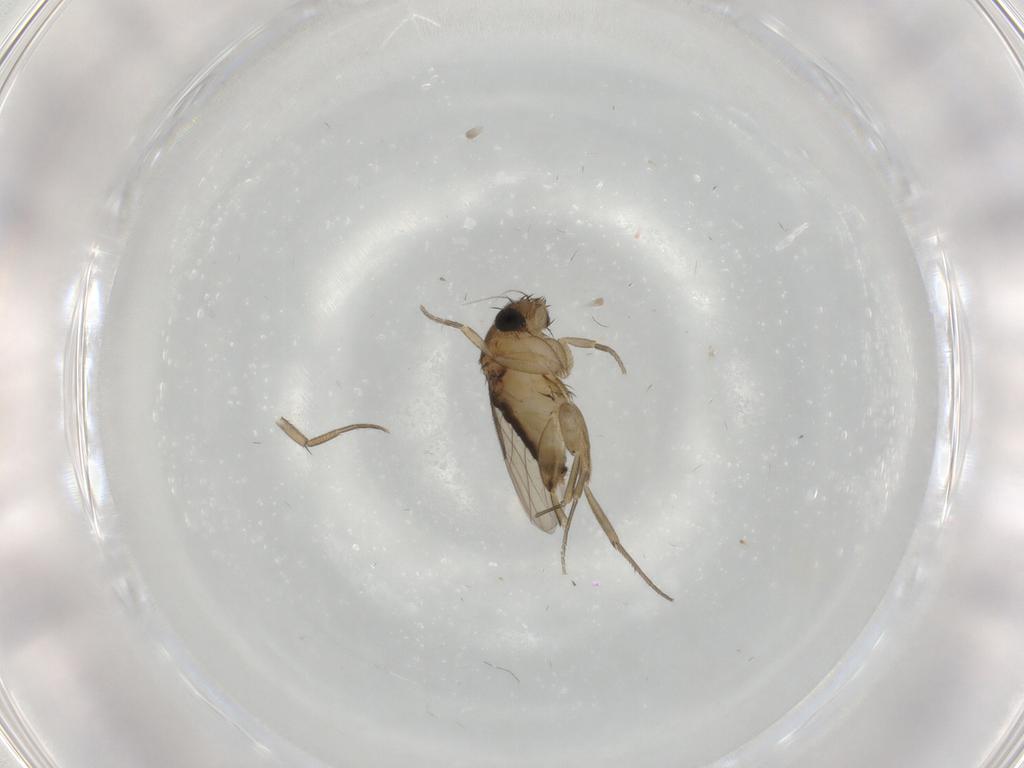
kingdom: Animalia
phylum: Arthropoda
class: Insecta
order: Diptera
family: Phoridae
